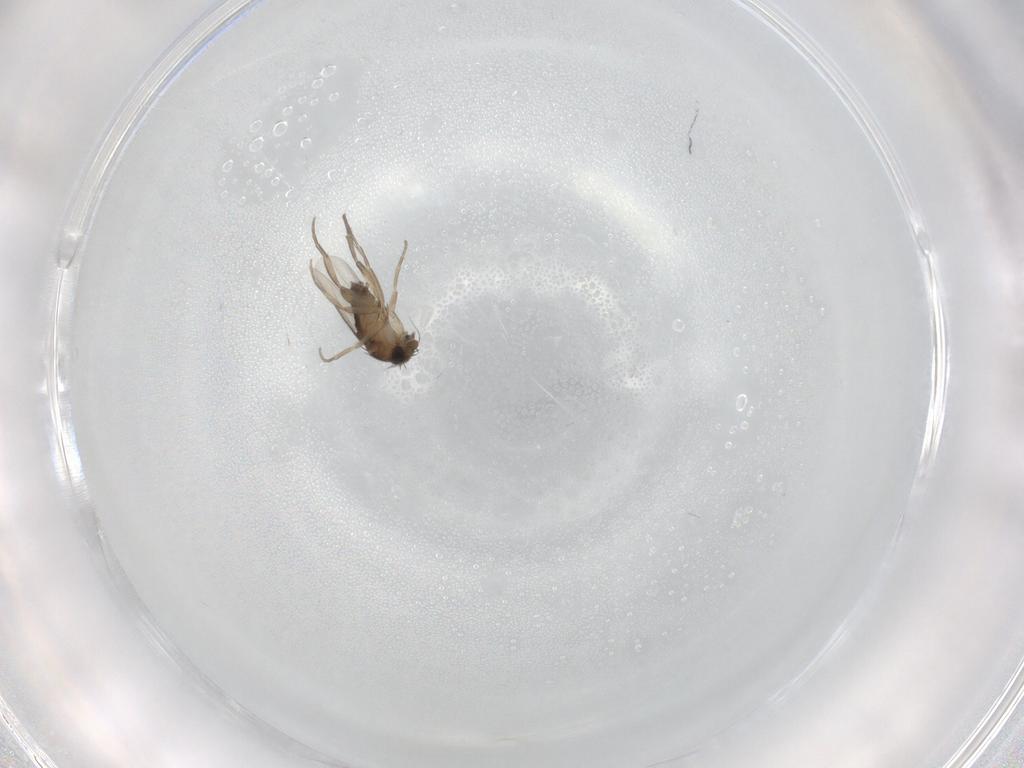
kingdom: Animalia
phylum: Arthropoda
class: Insecta
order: Diptera
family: Phoridae
